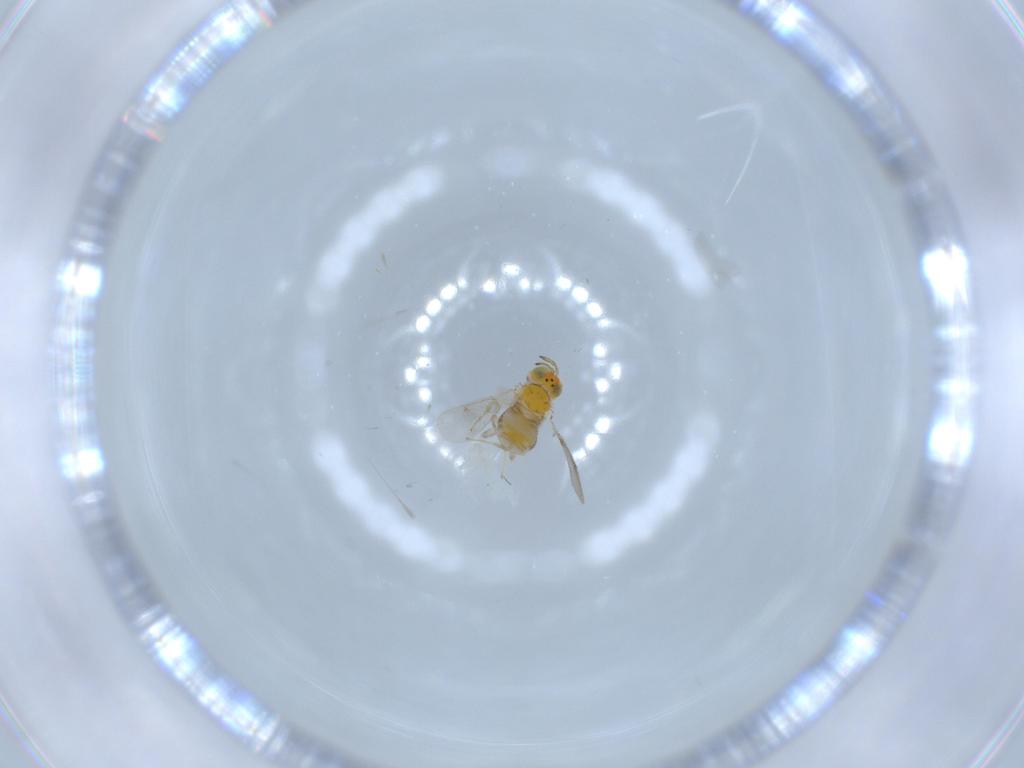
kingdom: Animalia
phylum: Arthropoda
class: Insecta
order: Hymenoptera
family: Aphelinidae
